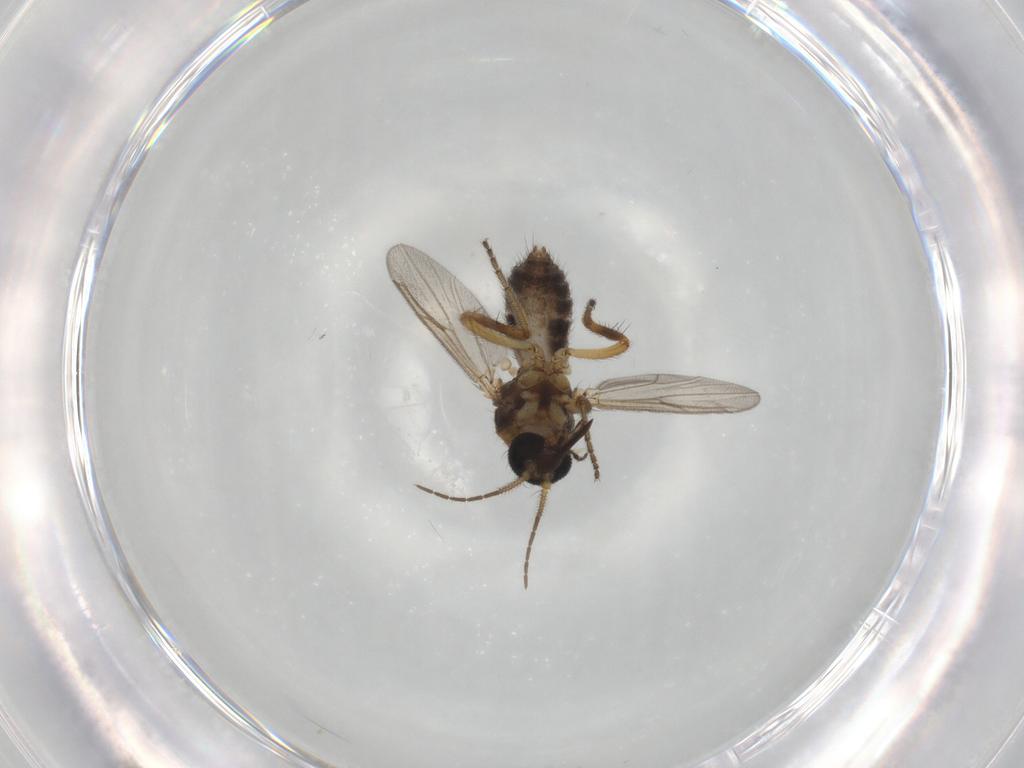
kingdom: Animalia
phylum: Arthropoda
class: Insecta
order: Diptera
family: Ceratopogonidae
